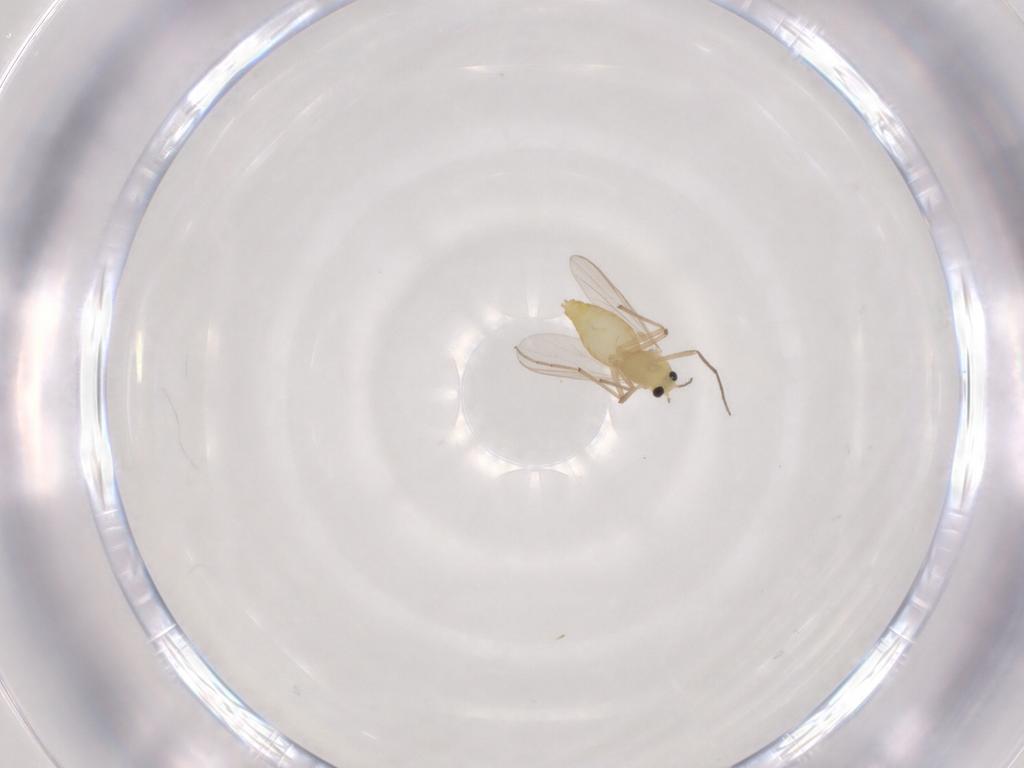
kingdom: Animalia
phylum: Arthropoda
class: Insecta
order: Diptera
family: Chironomidae
